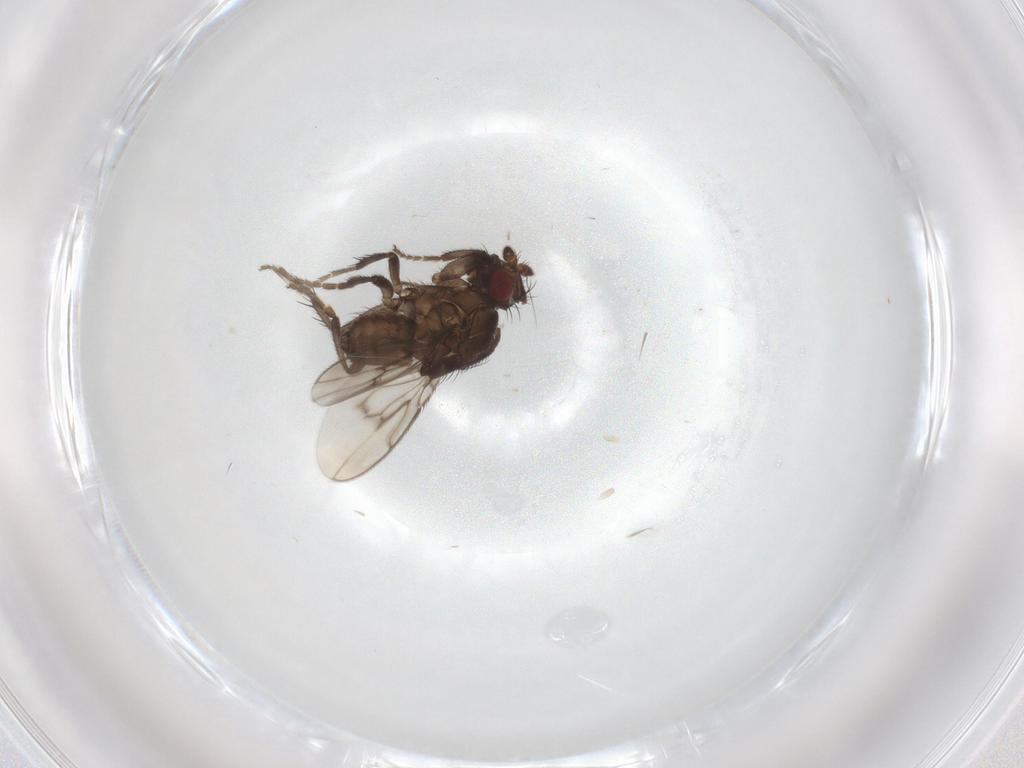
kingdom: Animalia
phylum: Arthropoda
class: Insecta
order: Diptera
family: Sphaeroceridae
